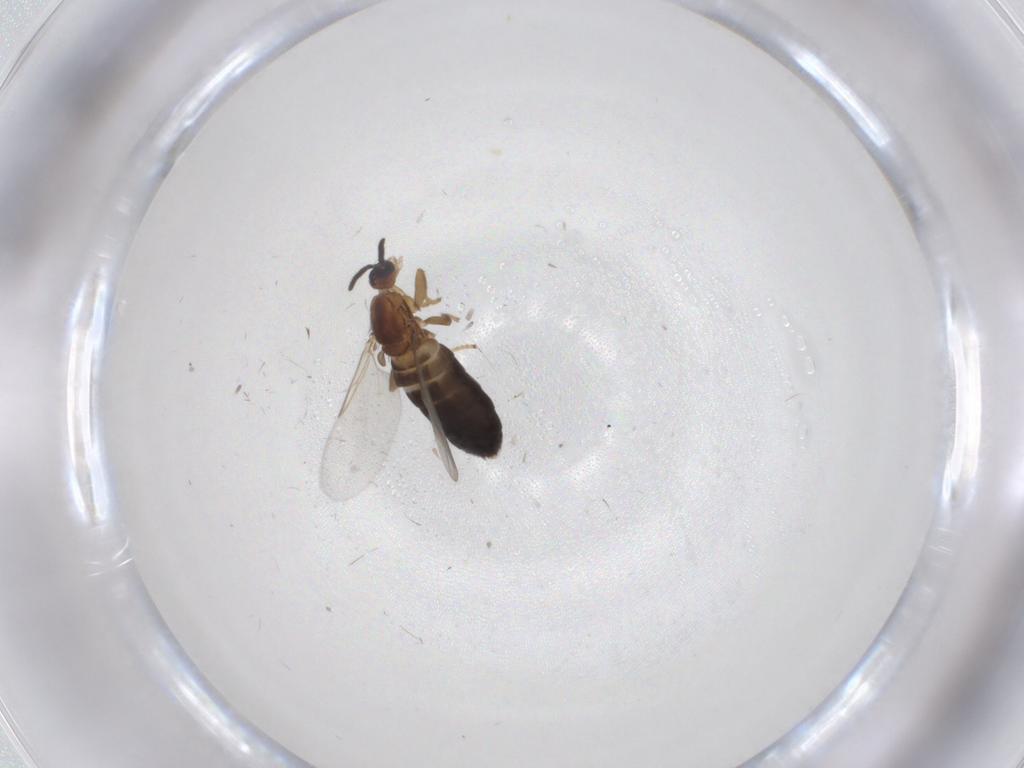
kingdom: Animalia
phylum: Arthropoda
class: Insecta
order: Diptera
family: Scatopsidae
